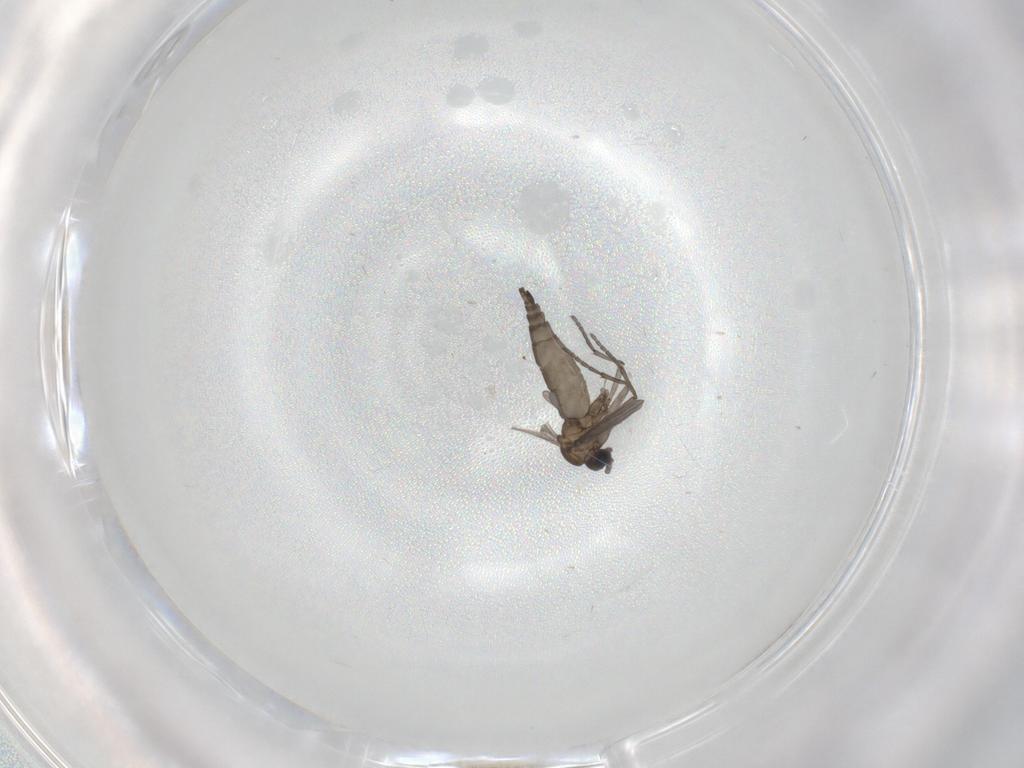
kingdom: Animalia
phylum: Arthropoda
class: Insecta
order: Diptera
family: Sciaridae
